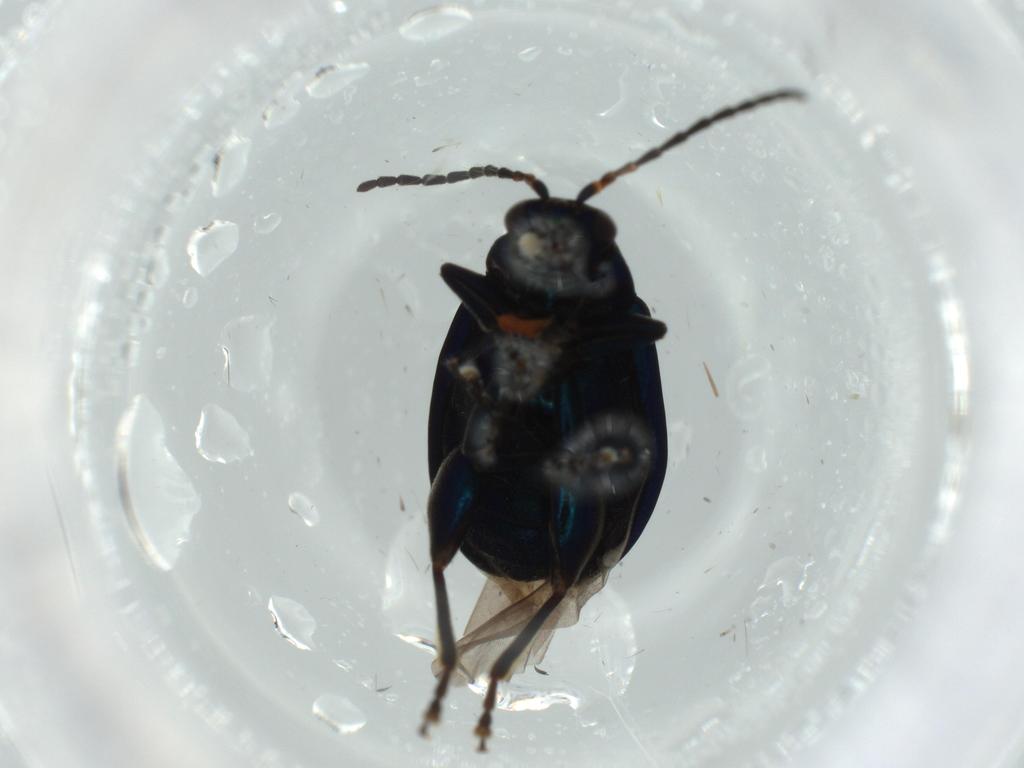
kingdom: Animalia
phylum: Arthropoda
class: Insecta
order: Coleoptera
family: Chrysomelidae
